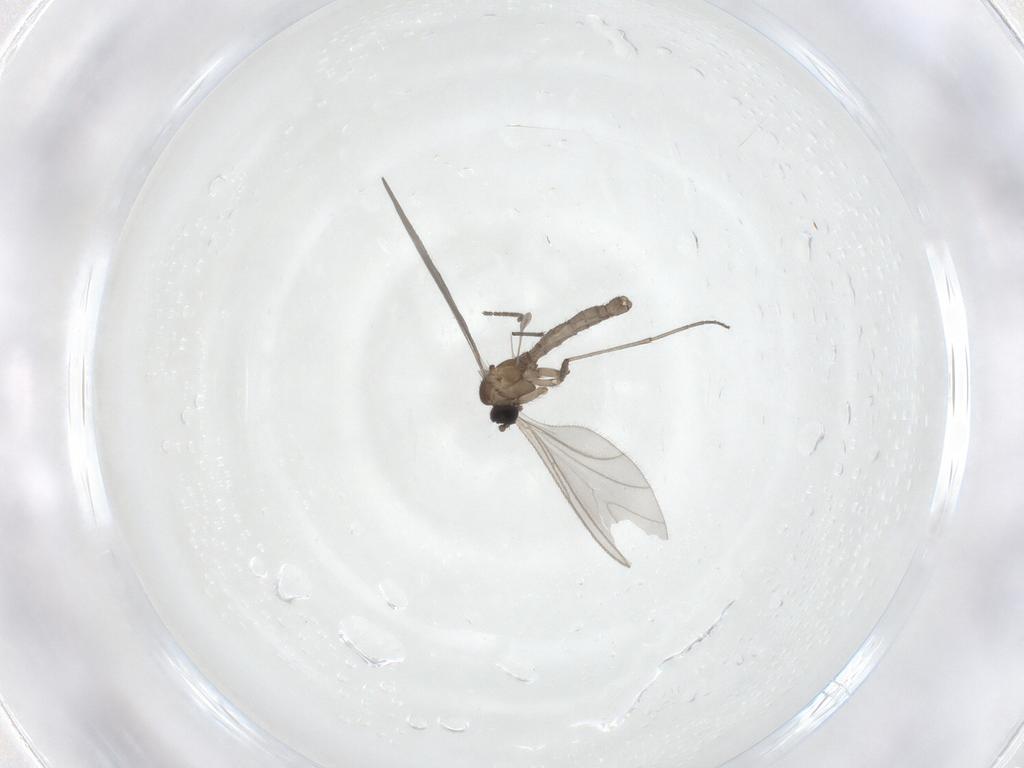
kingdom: Animalia
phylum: Arthropoda
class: Insecta
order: Diptera
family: Sciaridae
